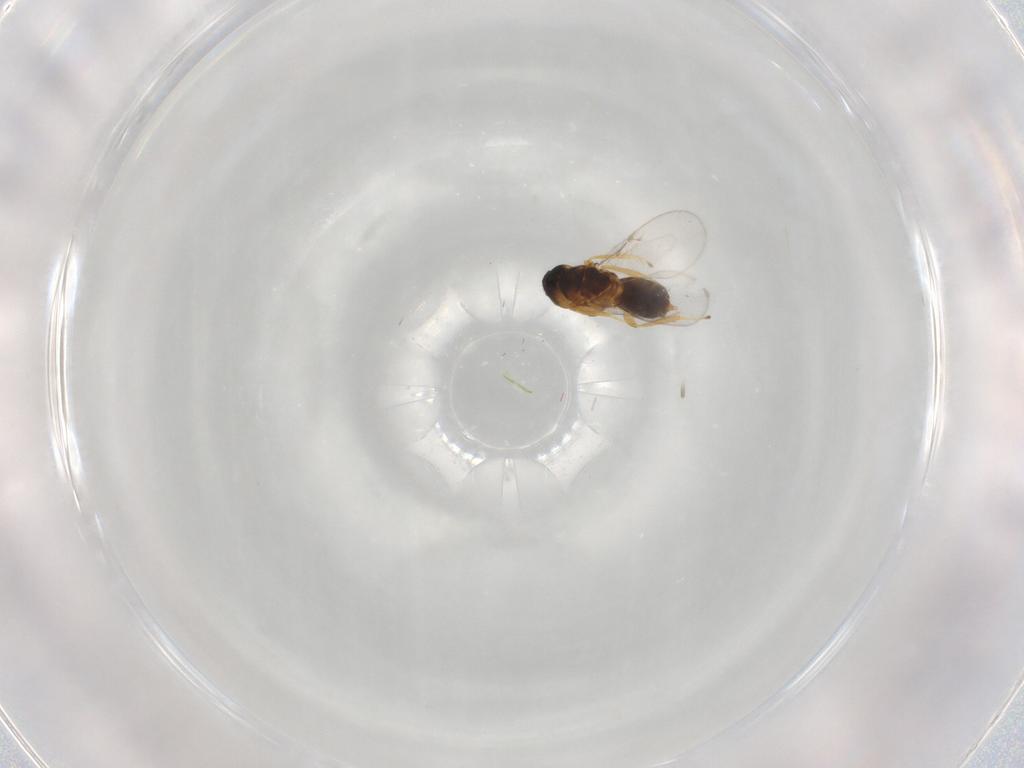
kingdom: Animalia
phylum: Arthropoda
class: Insecta
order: Hymenoptera
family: Encyrtidae
